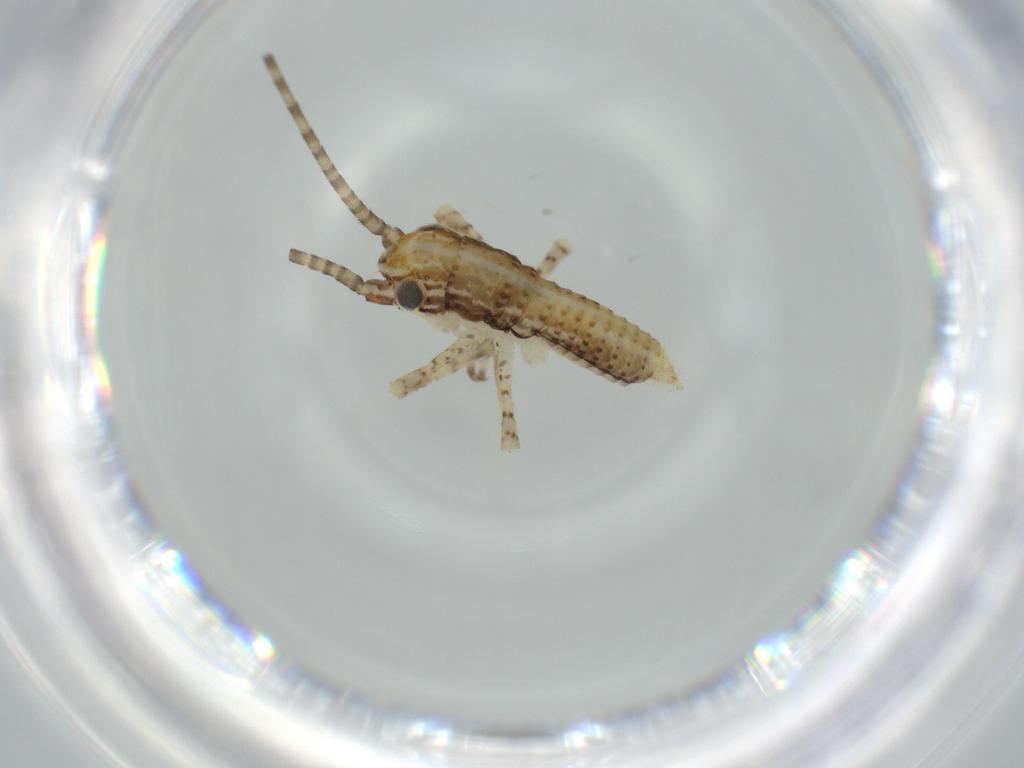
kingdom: Animalia
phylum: Arthropoda
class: Insecta
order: Orthoptera
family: Gryllidae
